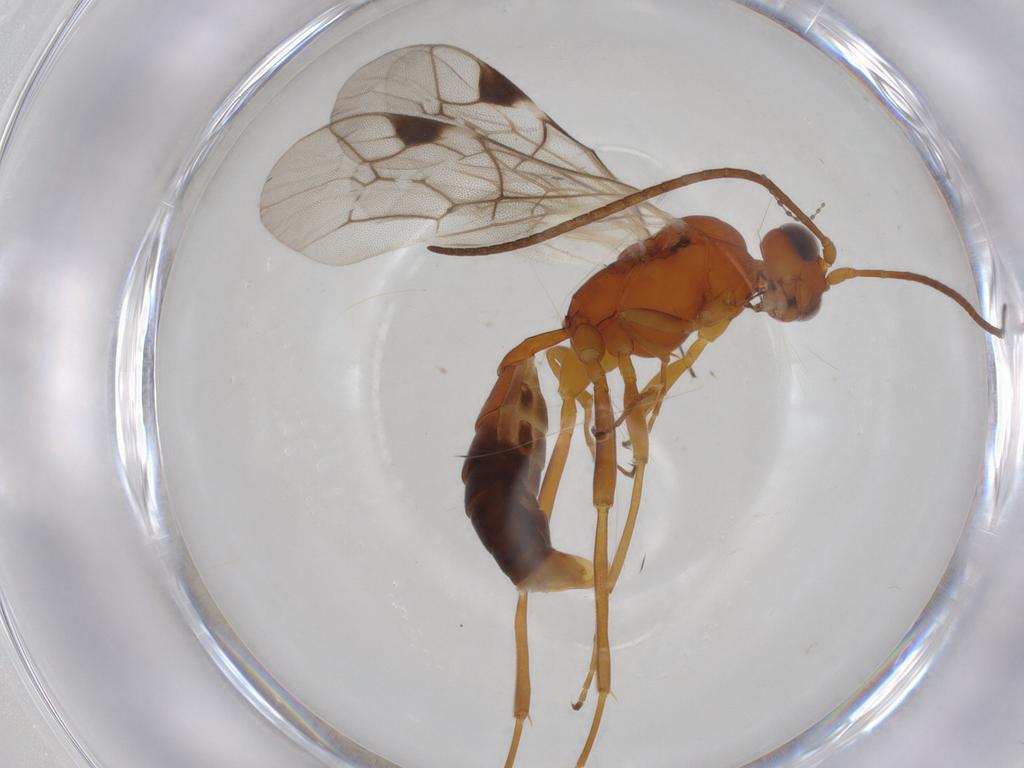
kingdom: Animalia
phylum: Arthropoda
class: Insecta
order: Hymenoptera
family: Ichneumonidae
